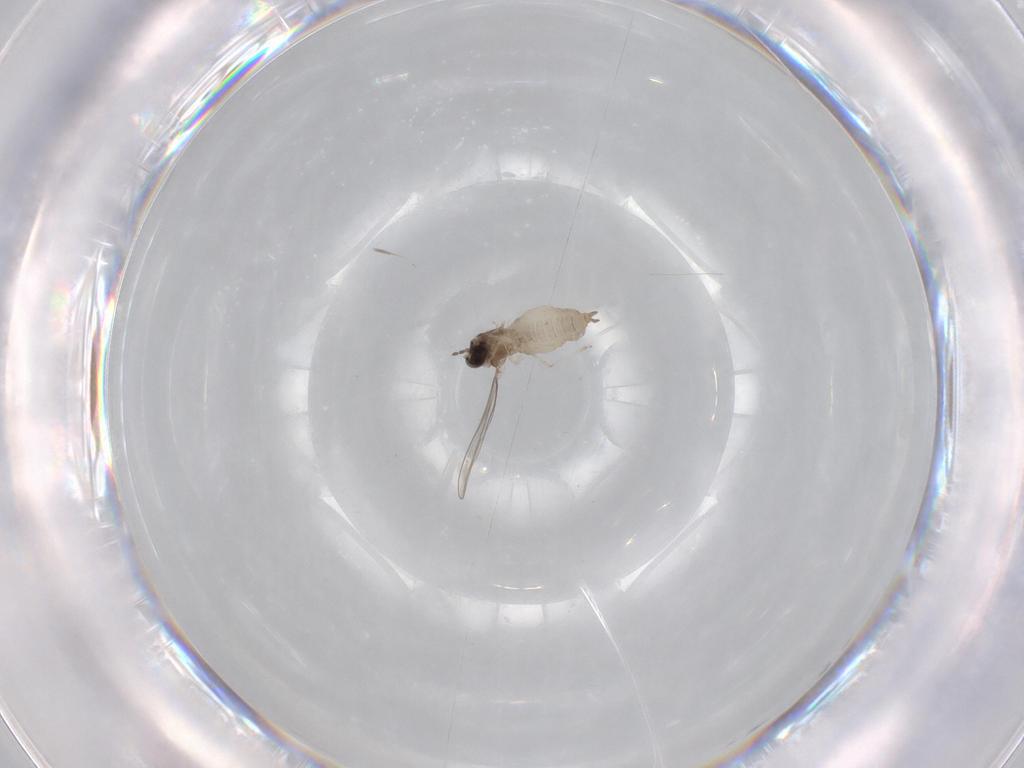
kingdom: Animalia
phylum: Arthropoda
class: Insecta
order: Diptera
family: Cecidomyiidae
